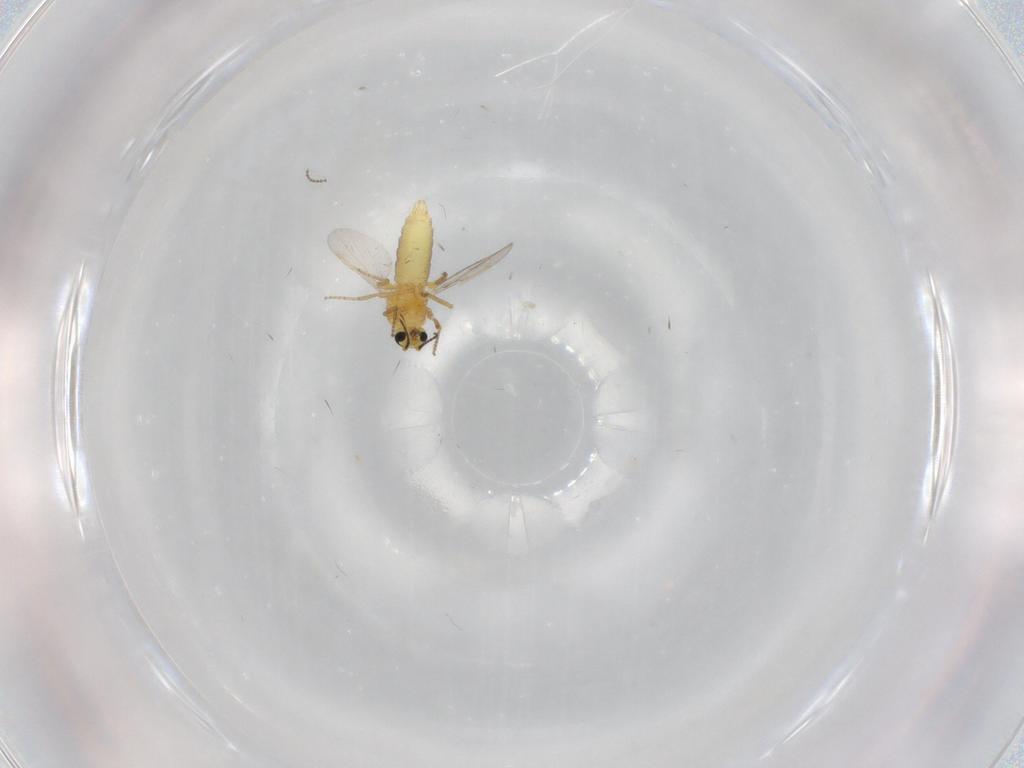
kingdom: Animalia
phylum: Arthropoda
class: Insecta
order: Diptera
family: Ceratopogonidae
